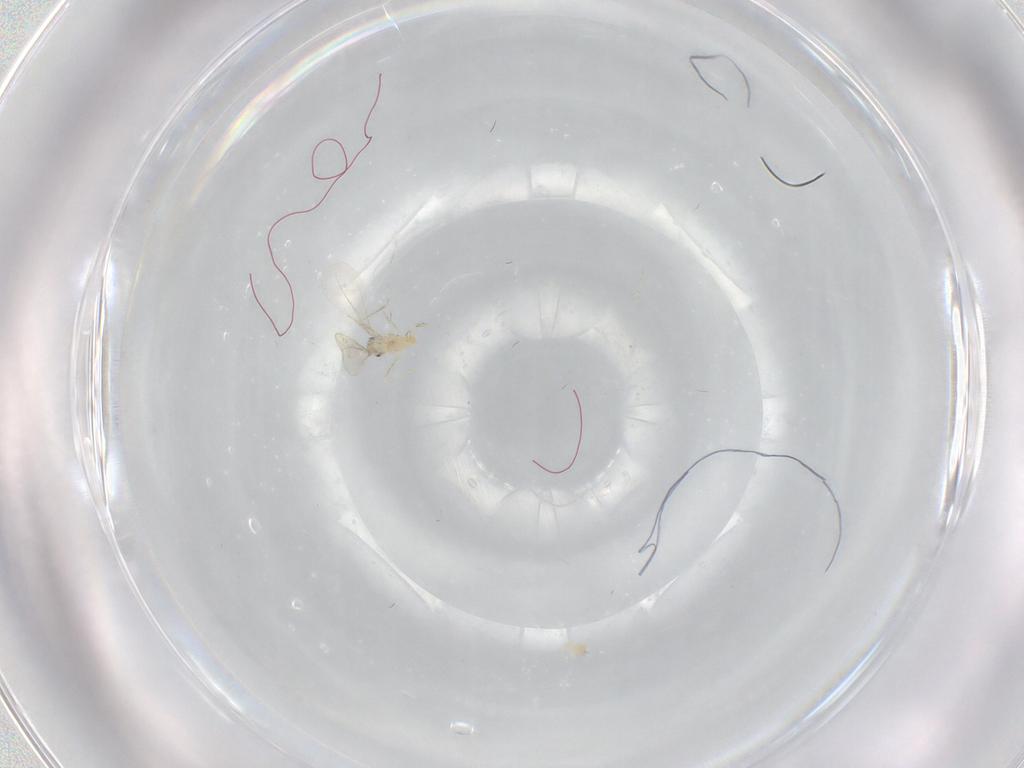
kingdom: Animalia
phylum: Arthropoda
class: Insecta
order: Diptera
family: Cecidomyiidae
